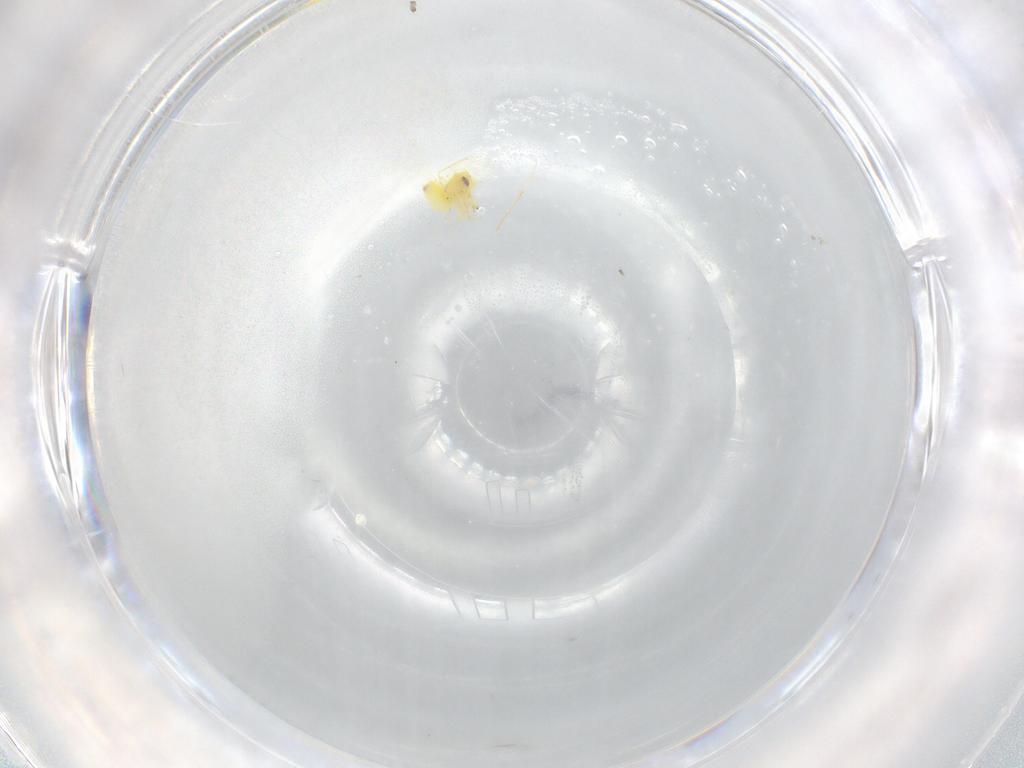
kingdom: Animalia
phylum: Arthropoda
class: Insecta
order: Hemiptera
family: Aleyrodidae
